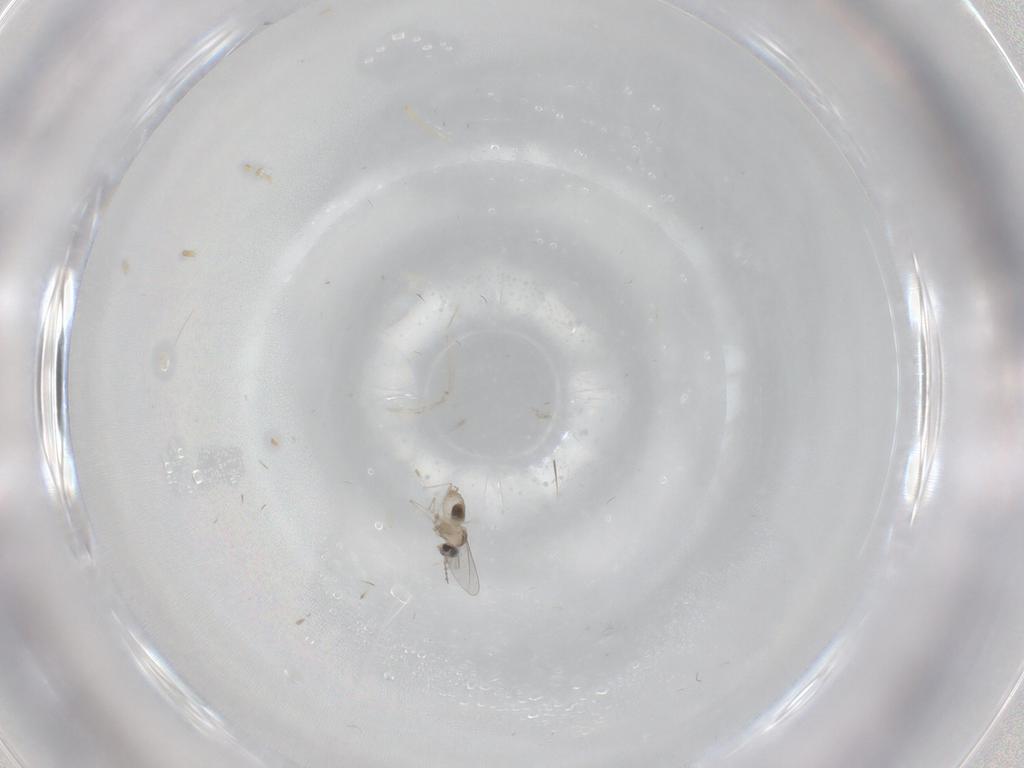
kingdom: Animalia
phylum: Arthropoda
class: Insecta
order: Diptera
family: Cecidomyiidae
